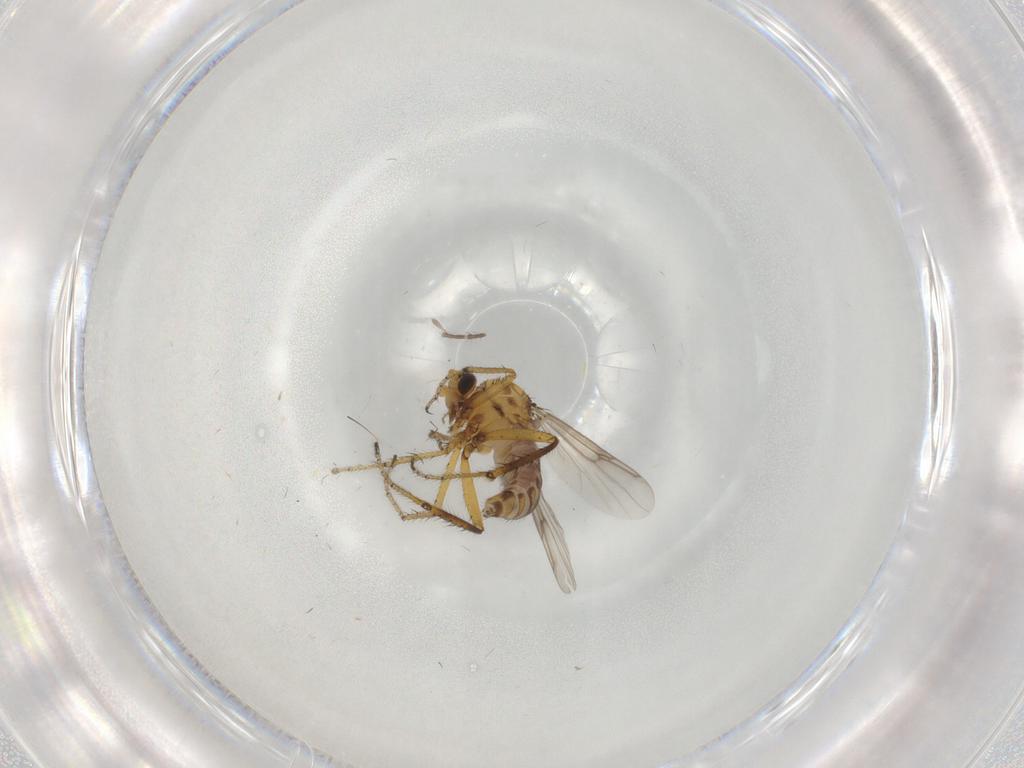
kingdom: Animalia
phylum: Arthropoda
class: Insecta
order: Diptera
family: Ceratopogonidae
